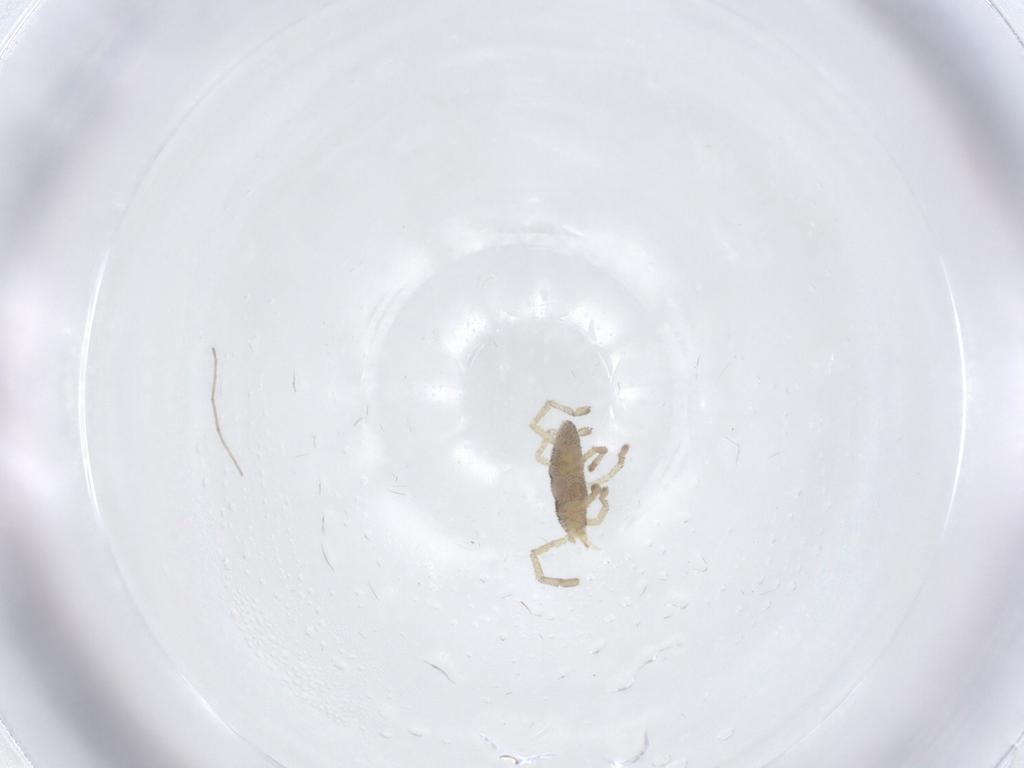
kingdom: Animalia
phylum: Arthropoda
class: Arachnida
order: Trombidiformes
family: Smarididae
